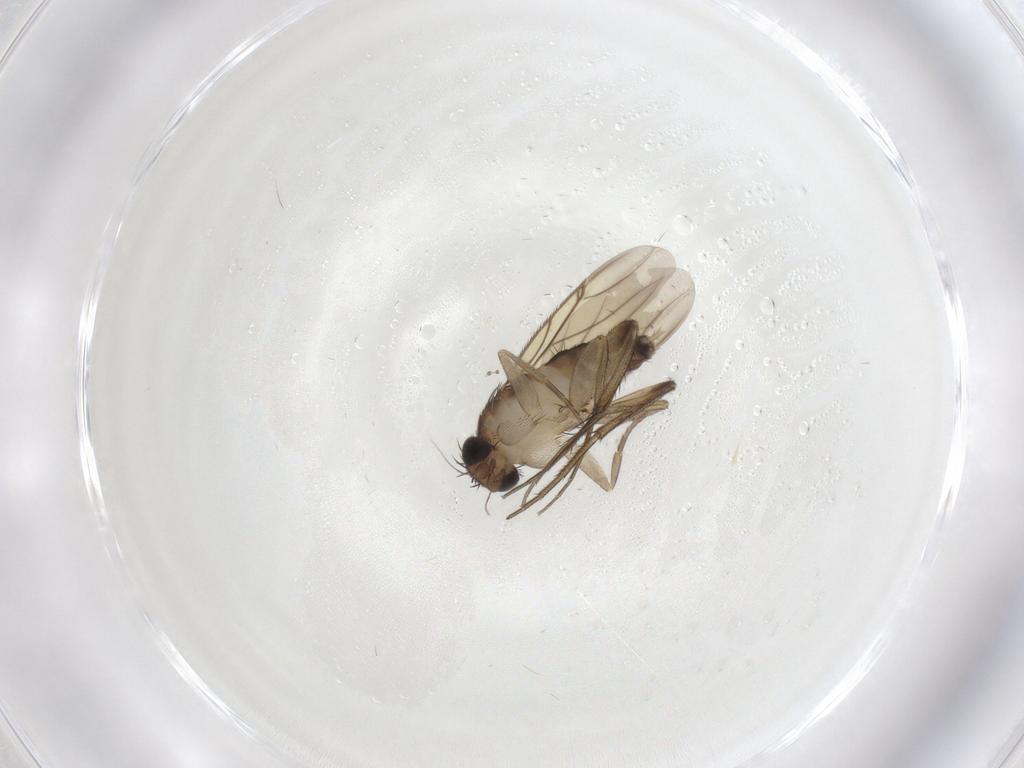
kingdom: Animalia
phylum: Arthropoda
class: Insecta
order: Diptera
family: Phoridae
